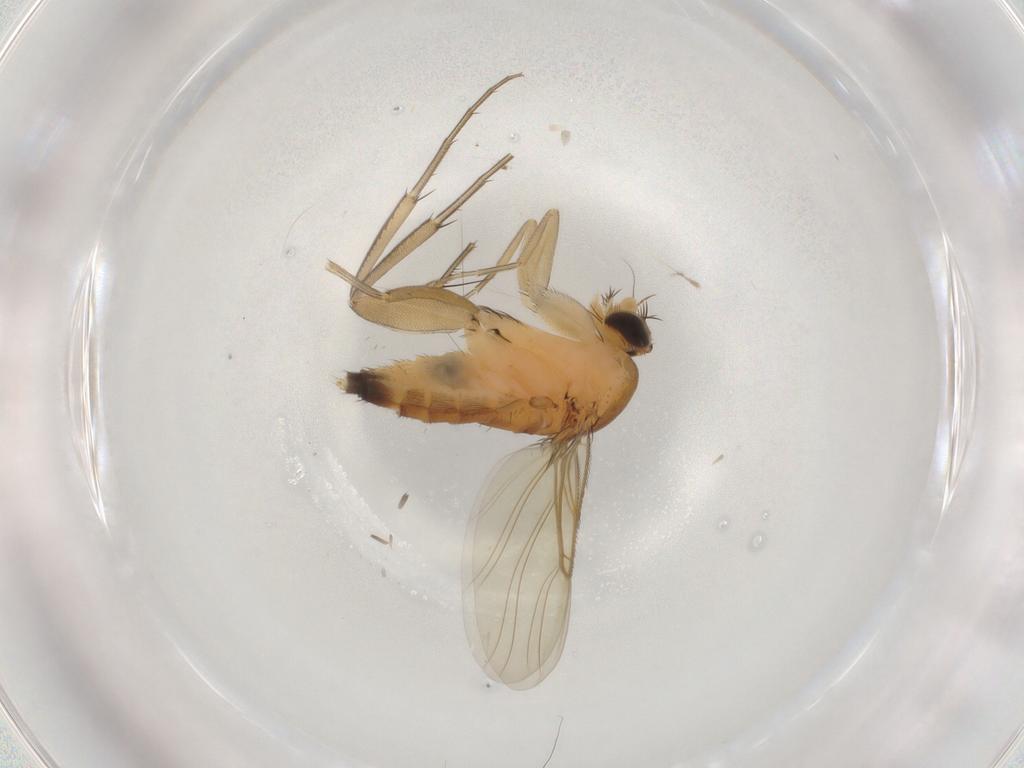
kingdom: Animalia
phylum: Arthropoda
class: Insecta
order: Diptera
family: Phoridae
